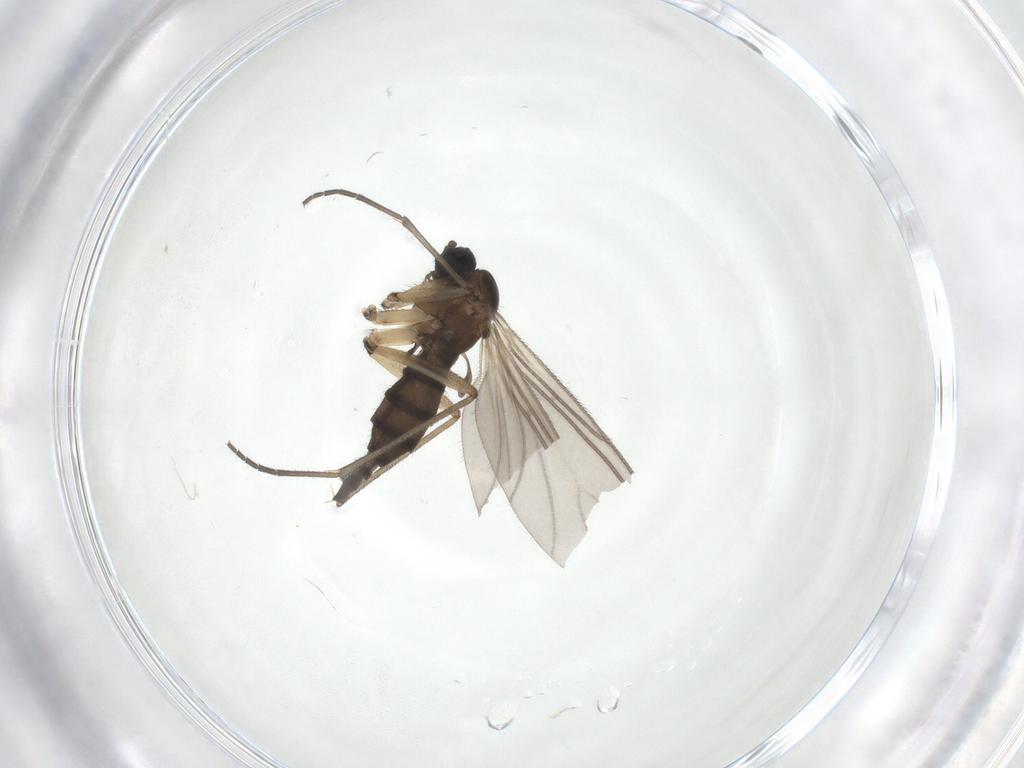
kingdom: Animalia
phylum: Arthropoda
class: Insecta
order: Diptera
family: Sciaridae
